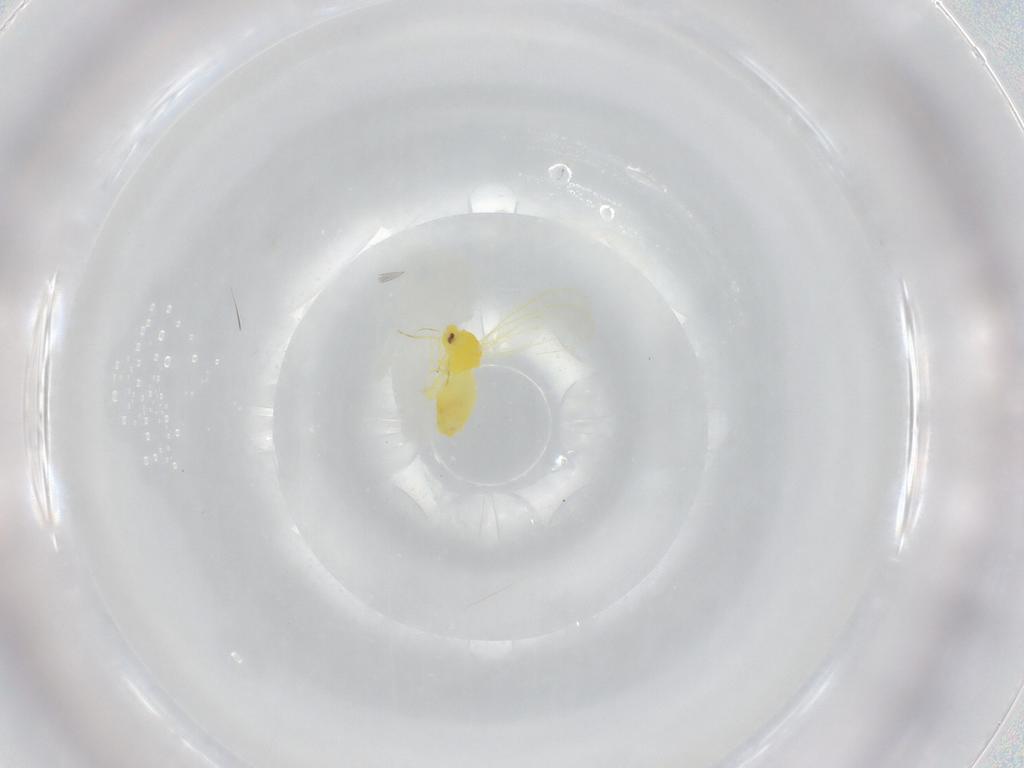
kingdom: Animalia
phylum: Arthropoda
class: Insecta
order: Hemiptera
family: Aleyrodidae
